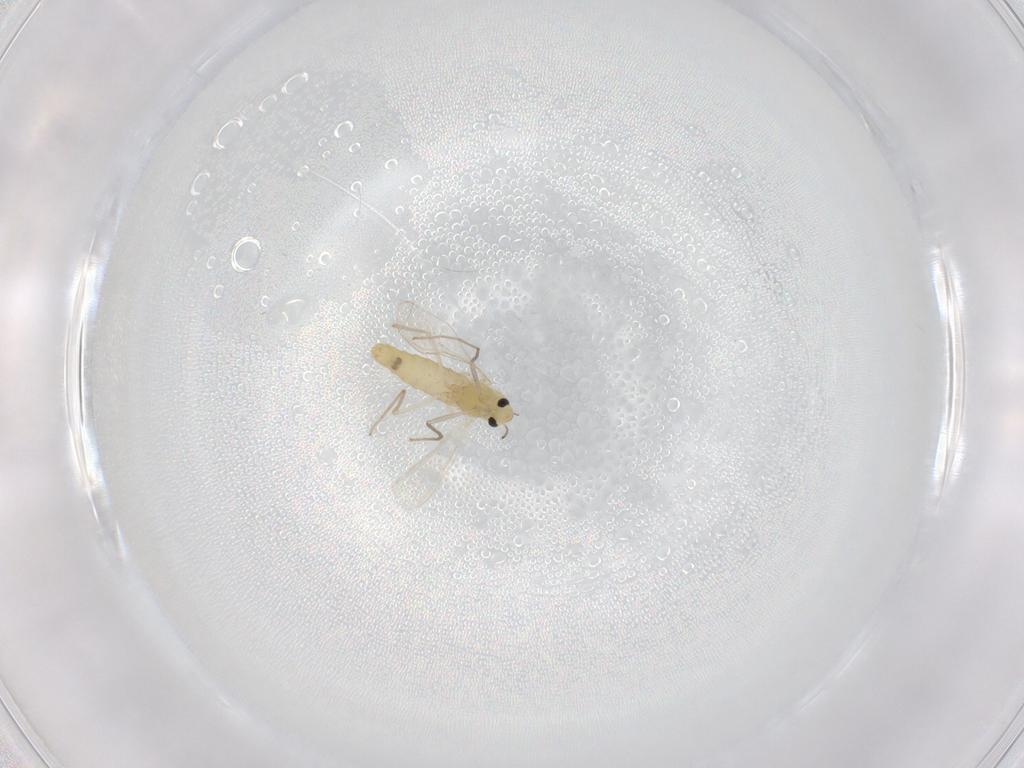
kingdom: Animalia
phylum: Arthropoda
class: Insecta
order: Diptera
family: Chironomidae
